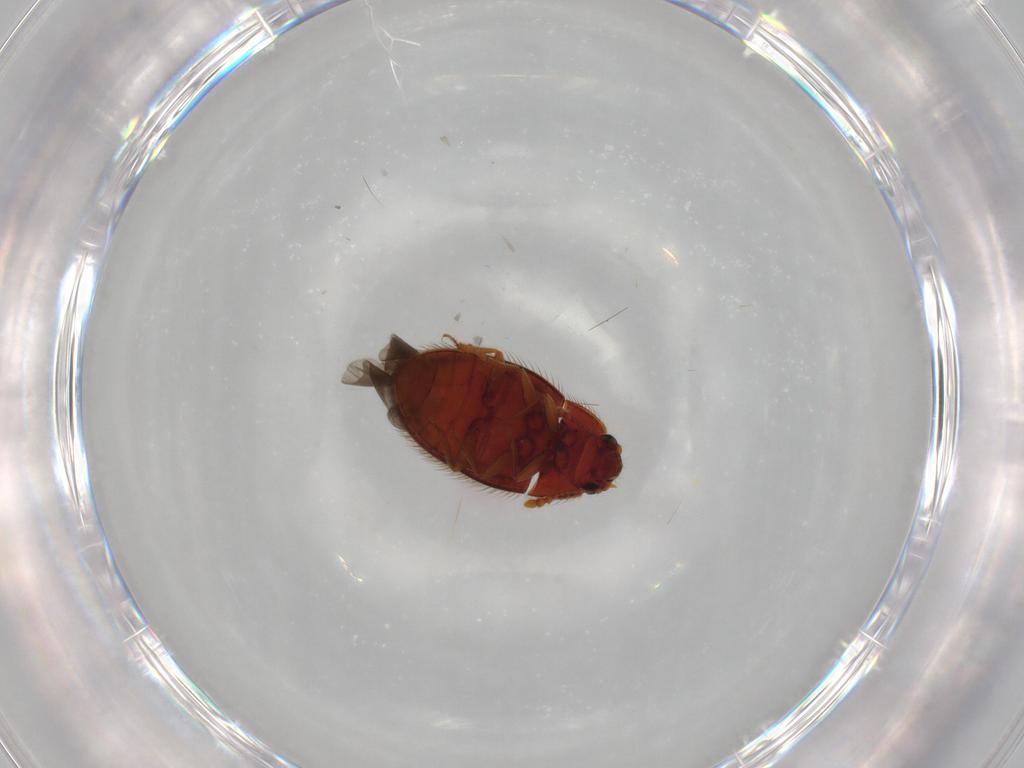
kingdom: Animalia
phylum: Arthropoda
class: Insecta
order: Coleoptera
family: Biphyllidae
